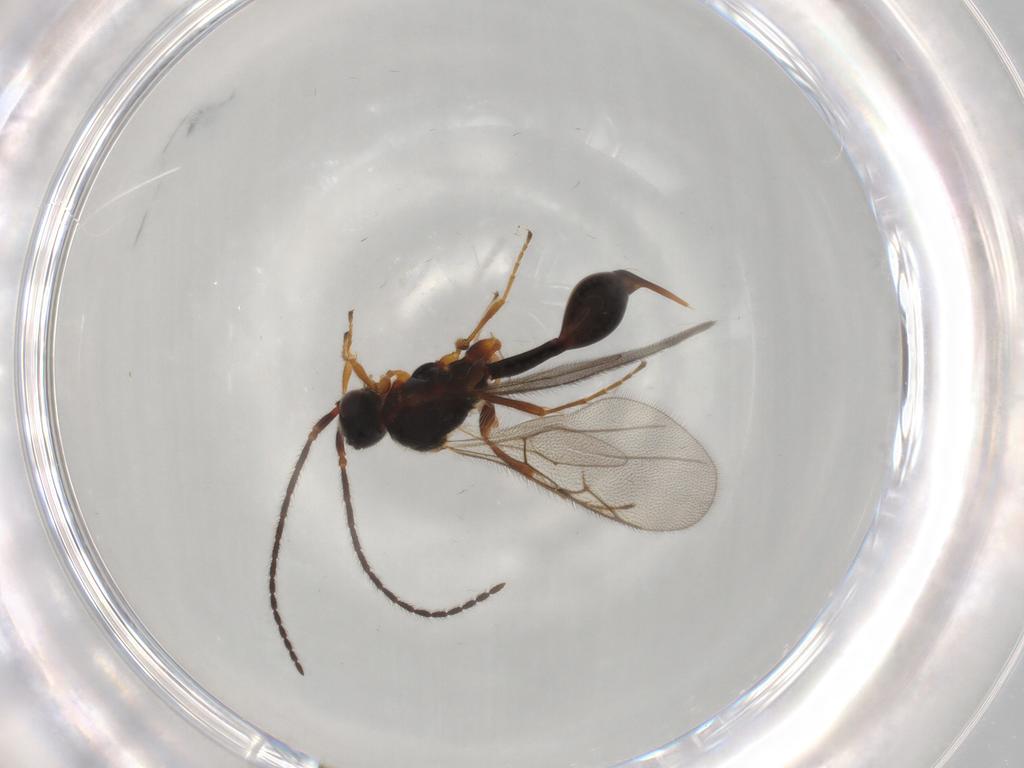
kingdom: Animalia
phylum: Arthropoda
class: Insecta
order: Hymenoptera
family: Diapriidae
